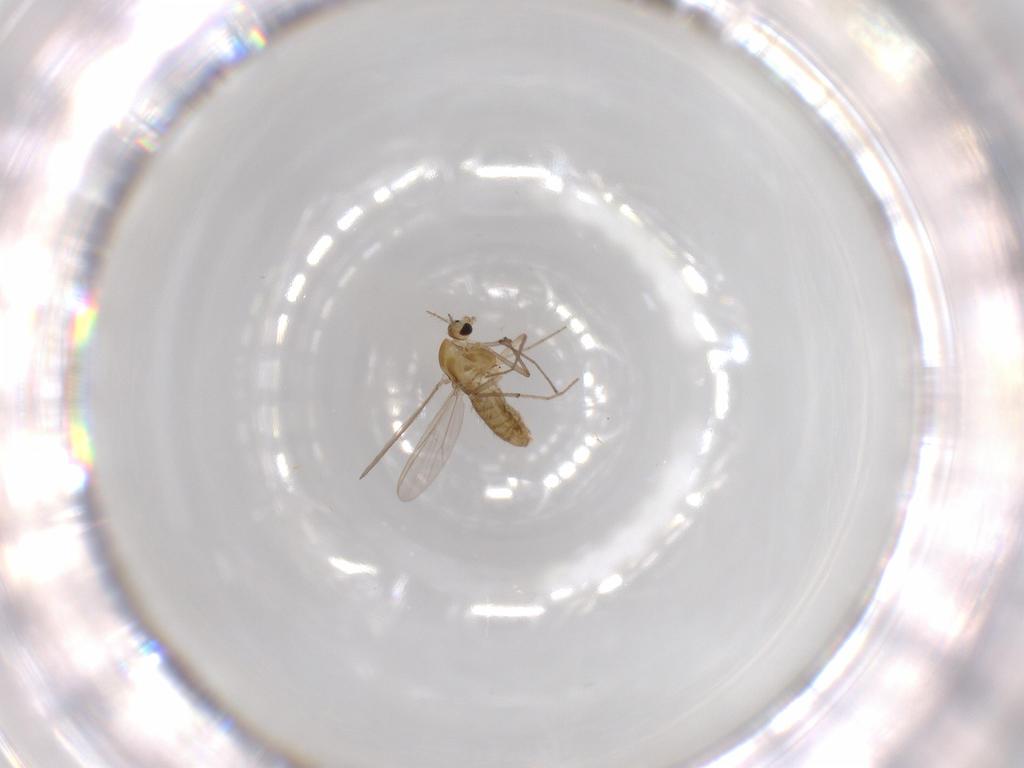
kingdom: Animalia
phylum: Arthropoda
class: Insecta
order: Diptera
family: Chironomidae
